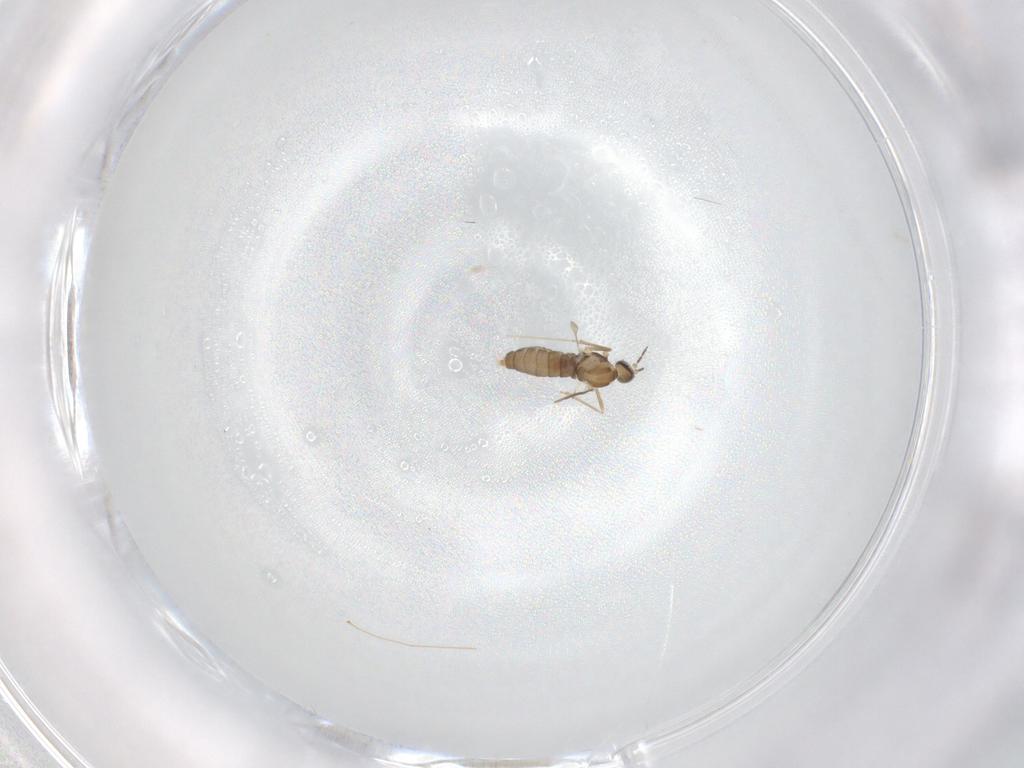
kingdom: Animalia
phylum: Arthropoda
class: Insecta
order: Diptera
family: Cecidomyiidae
